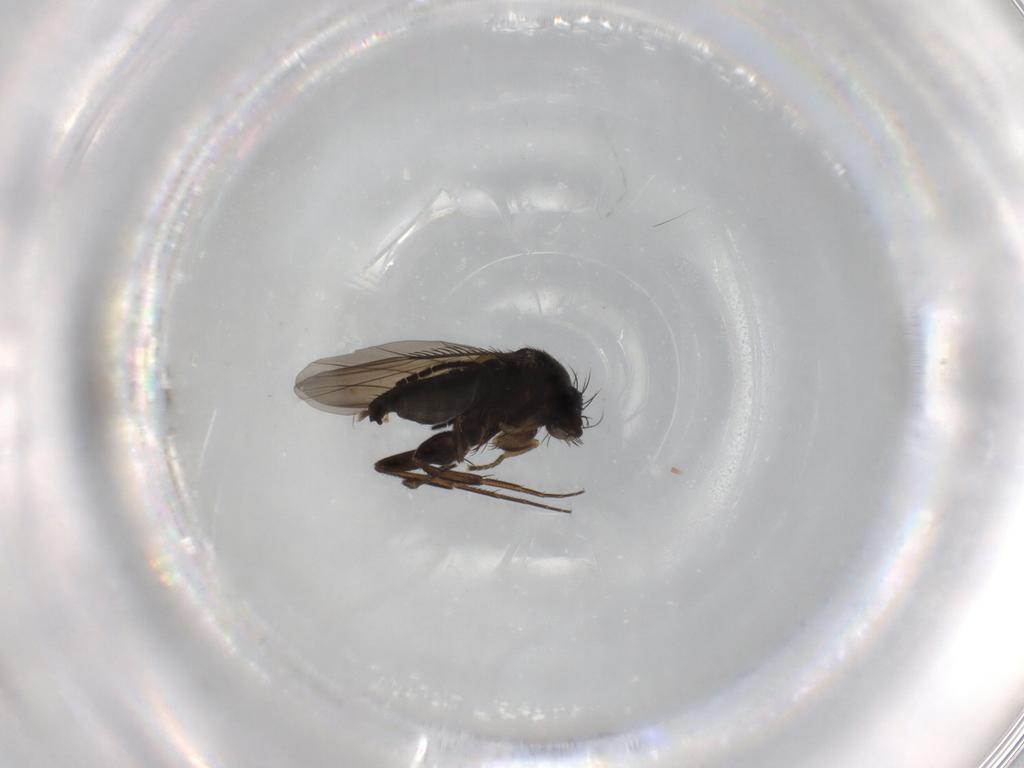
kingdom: Animalia
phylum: Arthropoda
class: Insecta
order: Diptera
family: Phoridae
